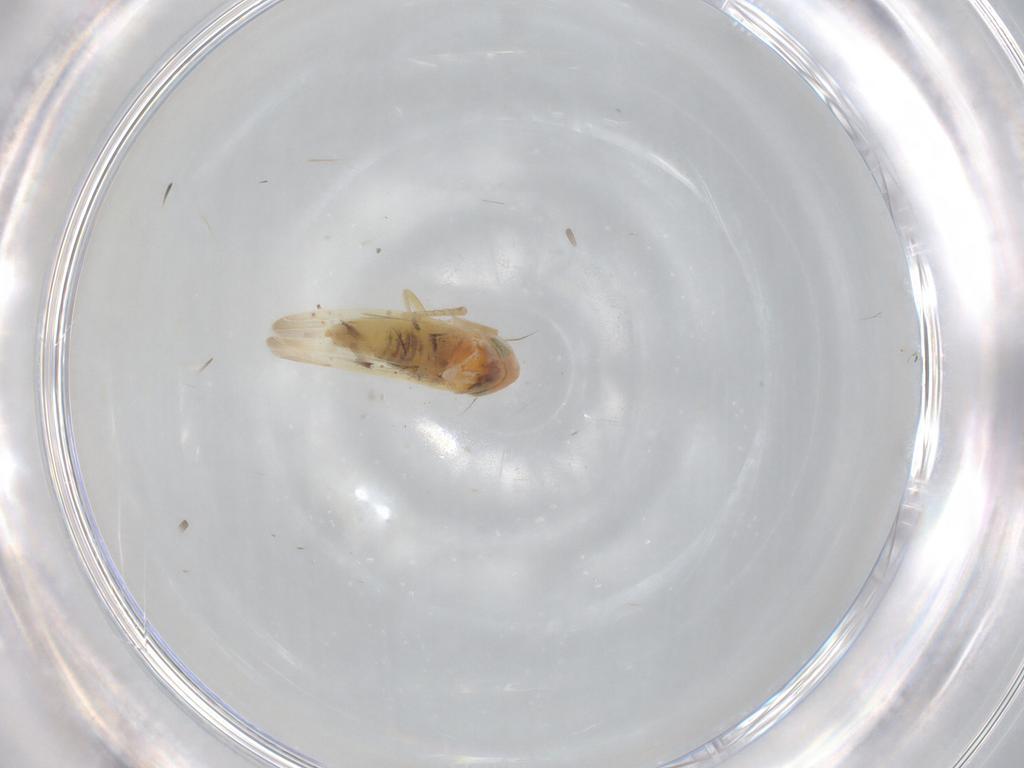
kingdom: Animalia
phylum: Arthropoda
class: Insecta
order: Hemiptera
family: Cicadellidae
